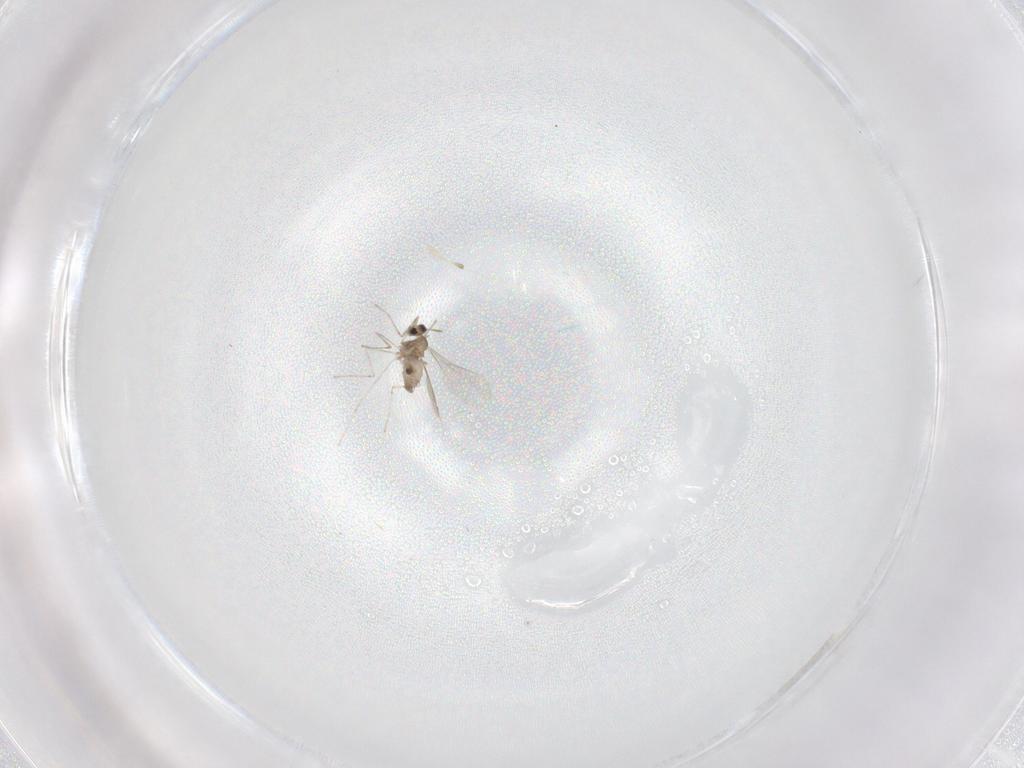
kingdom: Animalia
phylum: Arthropoda
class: Insecta
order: Diptera
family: Cecidomyiidae
